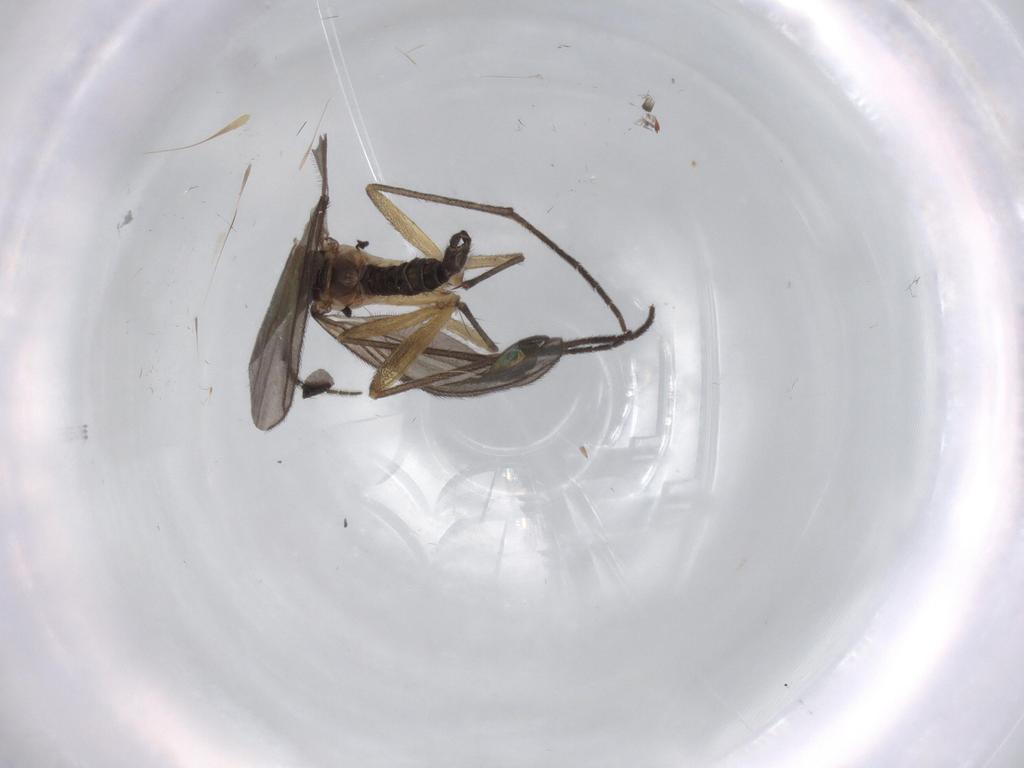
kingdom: Animalia
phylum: Arthropoda
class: Insecta
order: Diptera
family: Sciaridae
